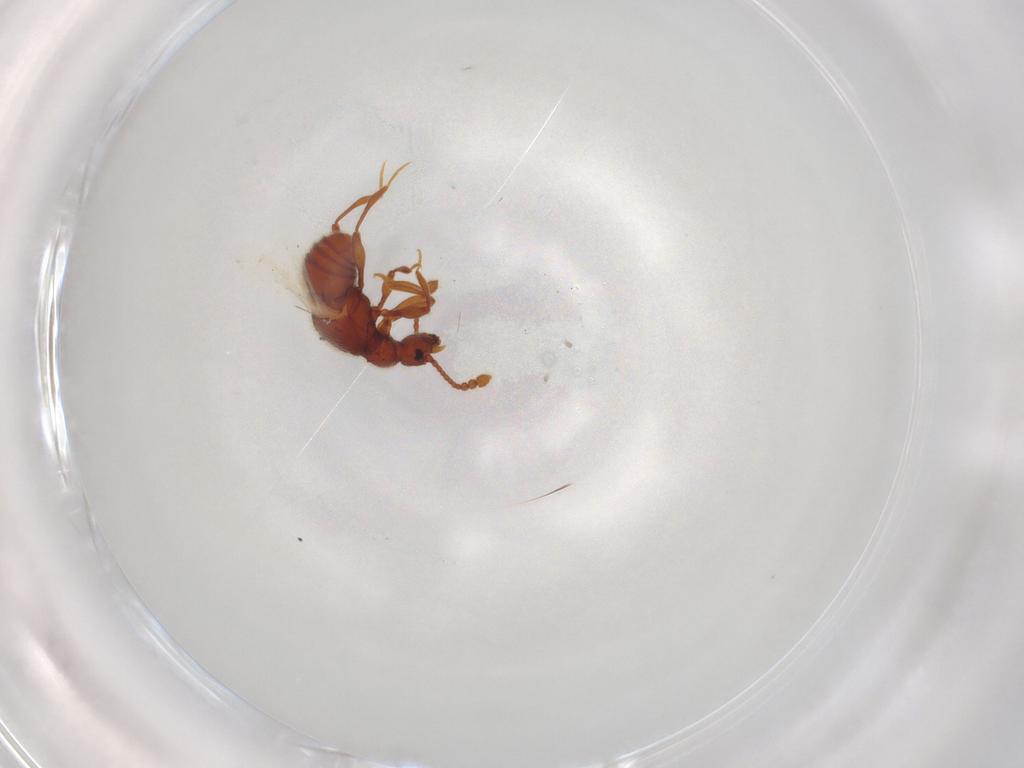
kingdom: Animalia
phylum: Arthropoda
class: Insecta
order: Coleoptera
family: Staphylinidae
